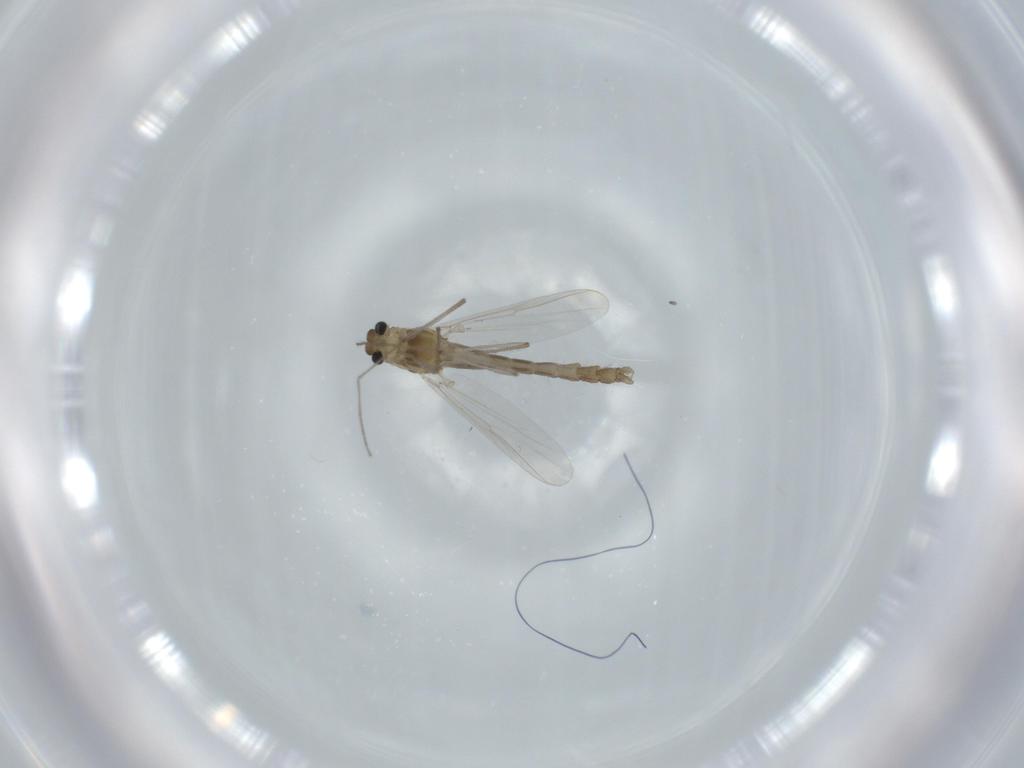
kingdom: Animalia
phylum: Arthropoda
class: Insecta
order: Diptera
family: Chironomidae
